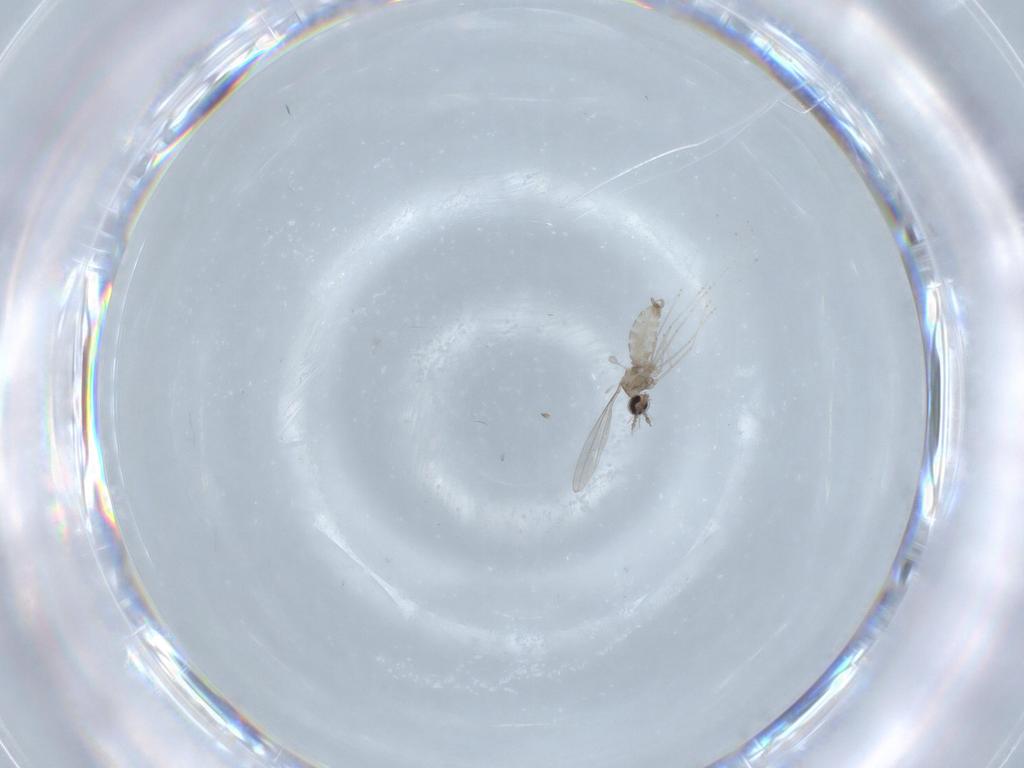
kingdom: Animalia
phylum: Arthropoda
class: Insecta
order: Diptera
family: Cecidomyiidae
